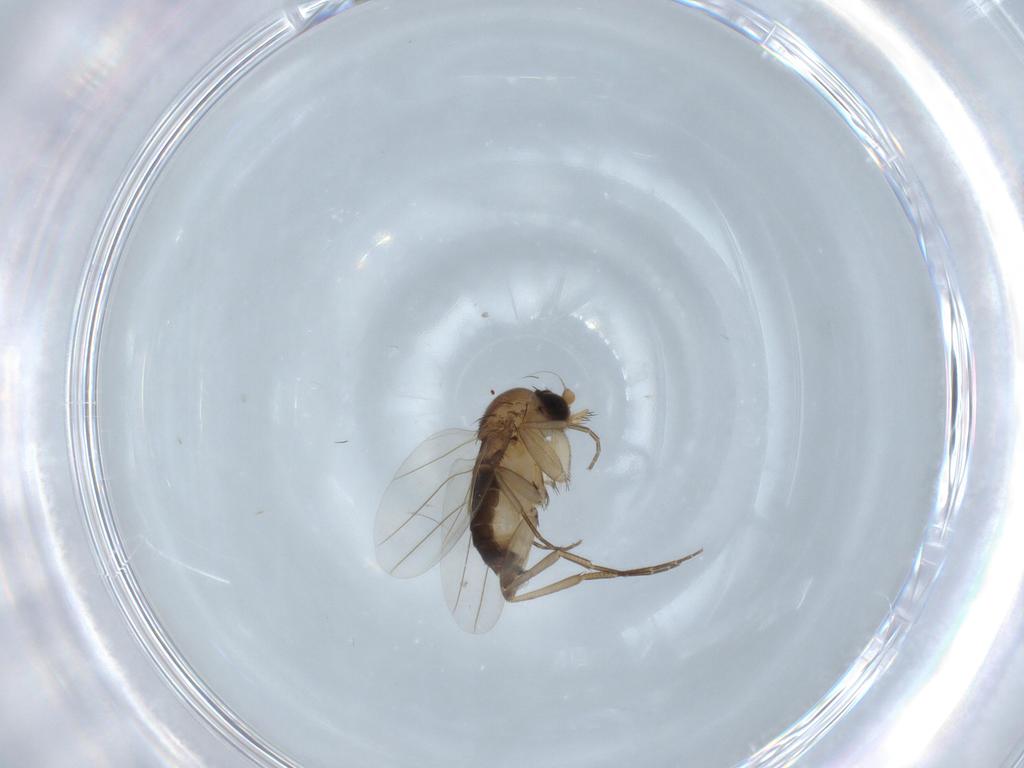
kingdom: Animalia
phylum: Arthropoda
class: Insecta
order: Diptera
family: Phoridae
